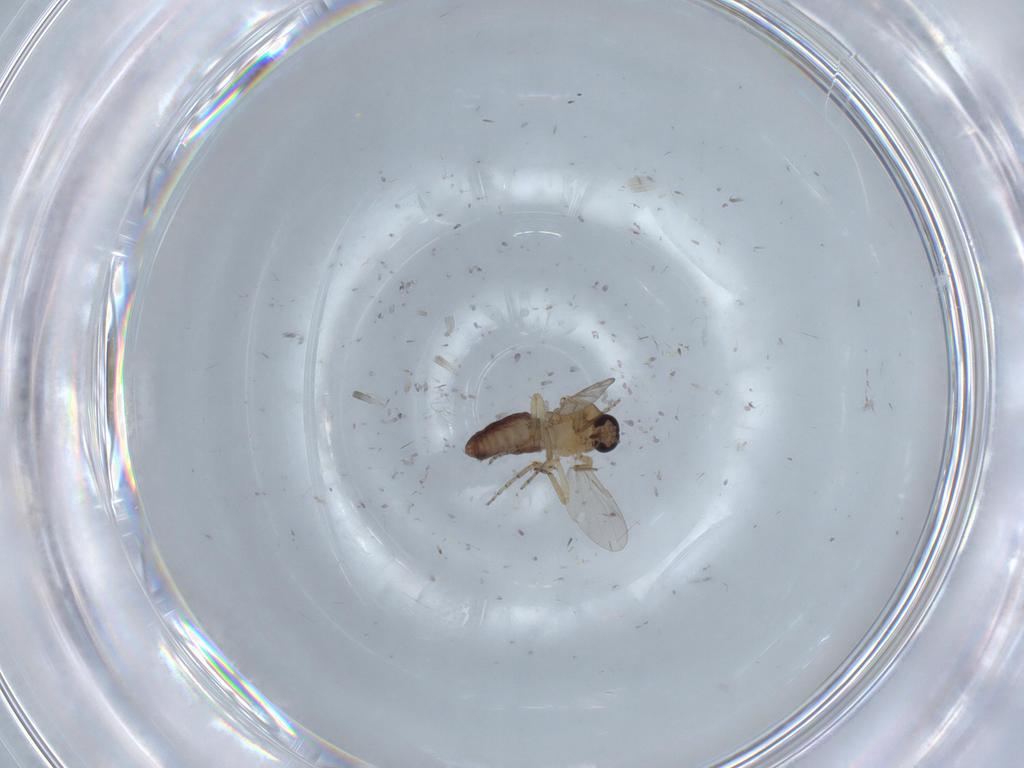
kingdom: Animalia
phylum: Arthropoda
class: Insecta
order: Diptera
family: Ceratopogonidae
